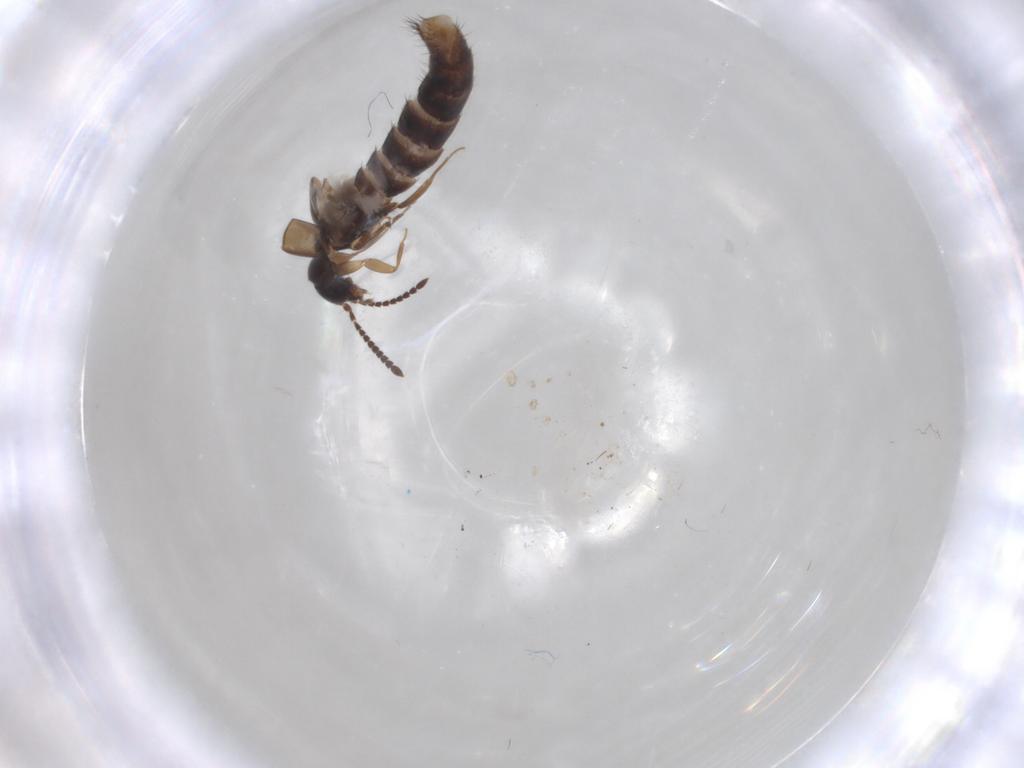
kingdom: Animalia
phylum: Arthropoda
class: Insecta
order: Coleoptera
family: Staphylinidae
